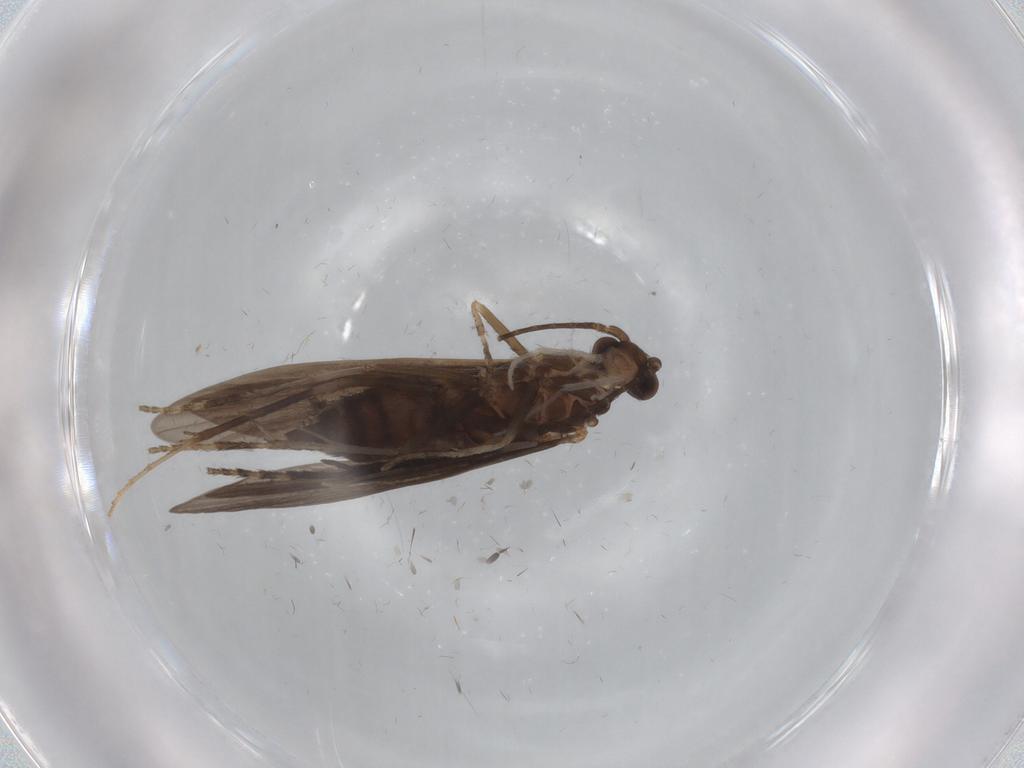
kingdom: Animalia
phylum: Arthropoda
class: Insecta
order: Trichoptera
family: Xiphocentronidae
